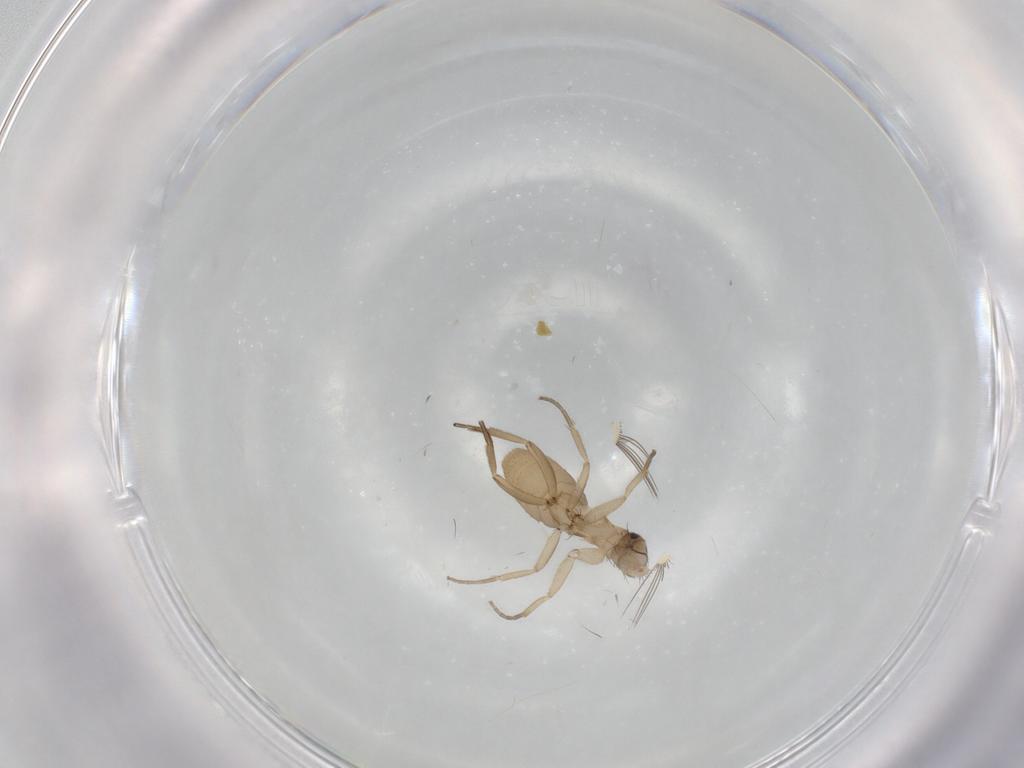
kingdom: Animalia
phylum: Arthropoda
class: Insecta
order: Diptera
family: Phoridae
